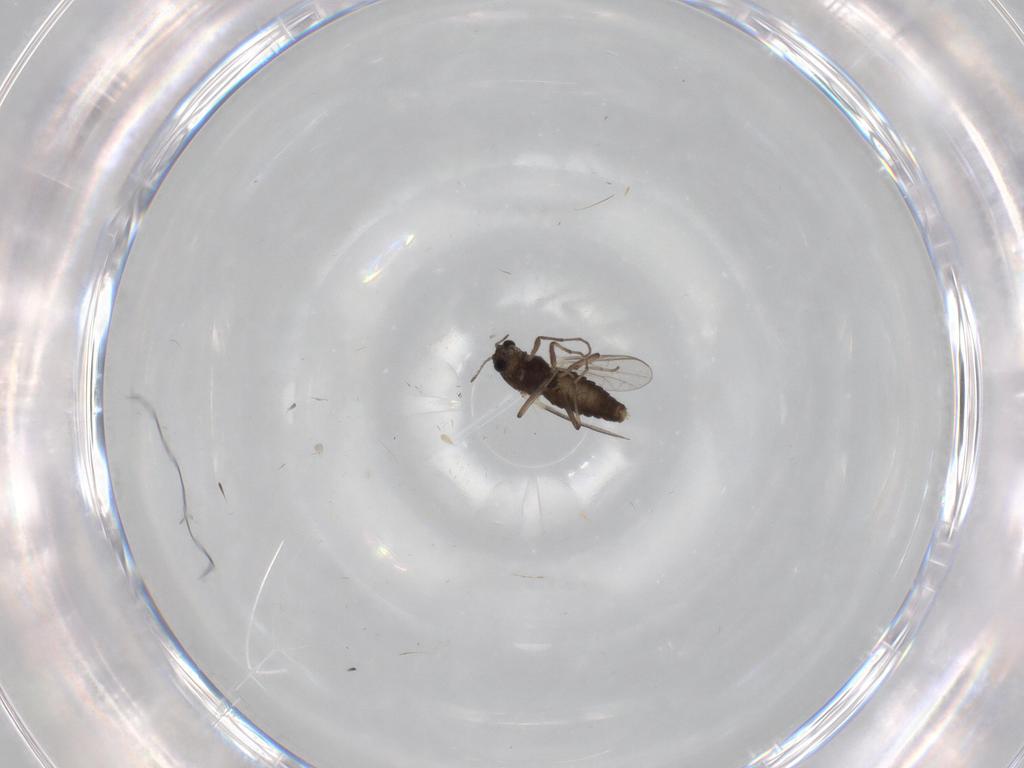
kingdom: Animalia
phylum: Arthropoda
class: Insecta
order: Diptera
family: Chironomidae
